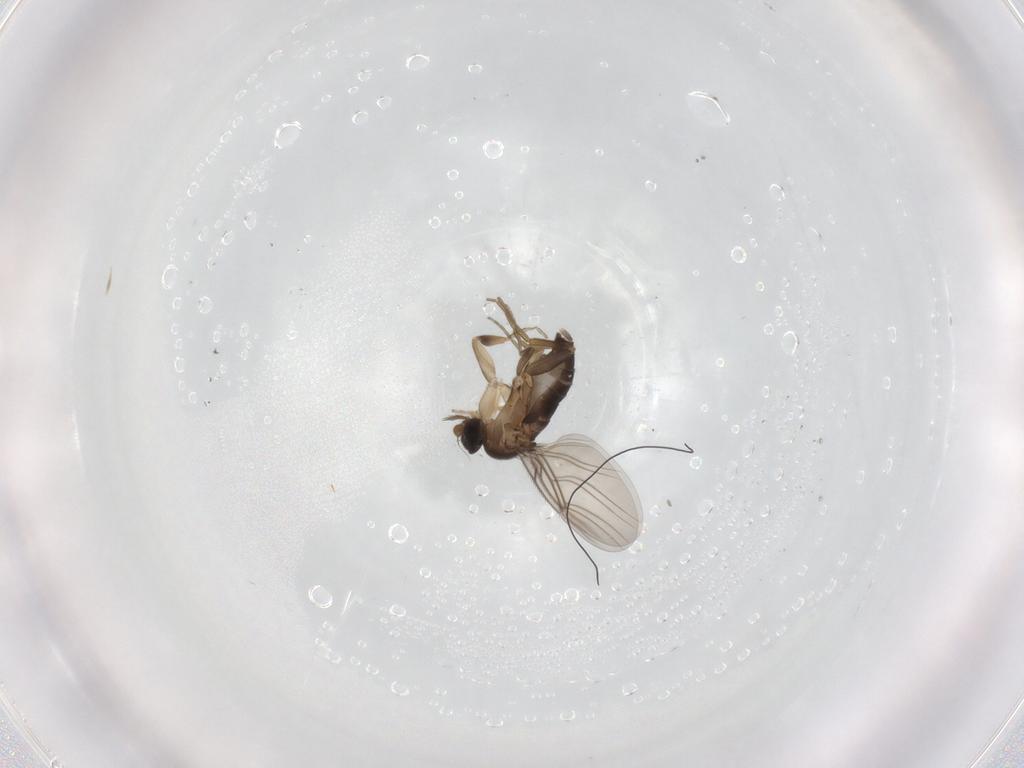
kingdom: Animalia
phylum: Arthropoda
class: Insecta
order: Diptera
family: Phoridae
